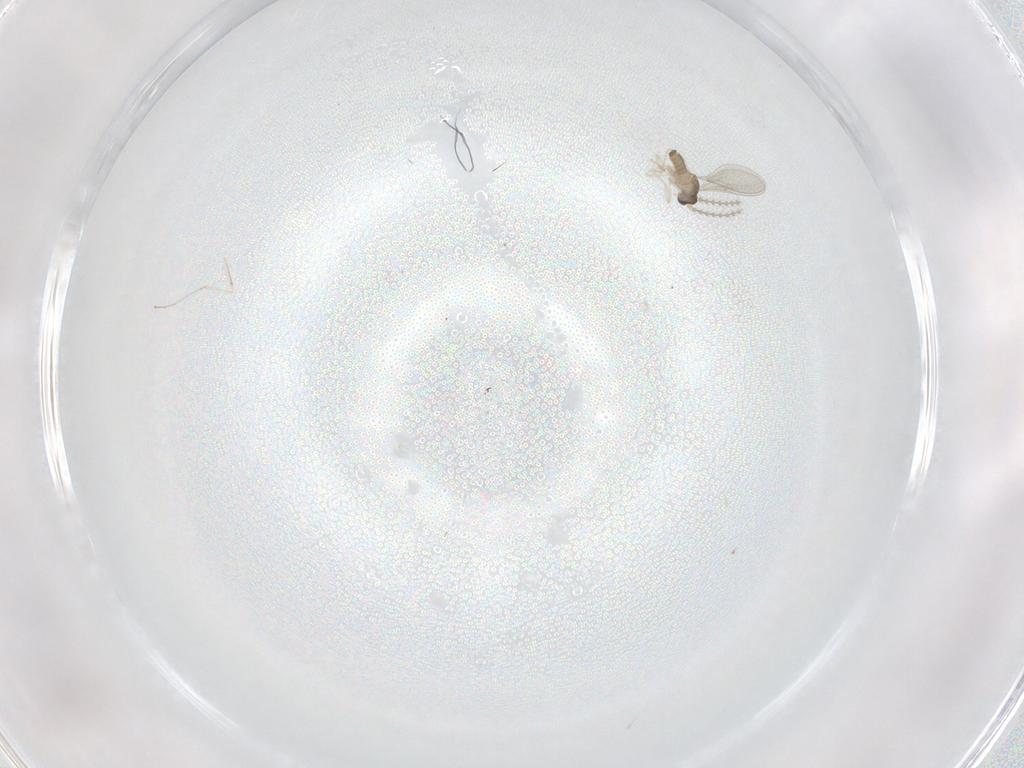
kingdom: Animalia
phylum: Arthropoda
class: Insecta
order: Diptera
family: Cecidomyiidae
